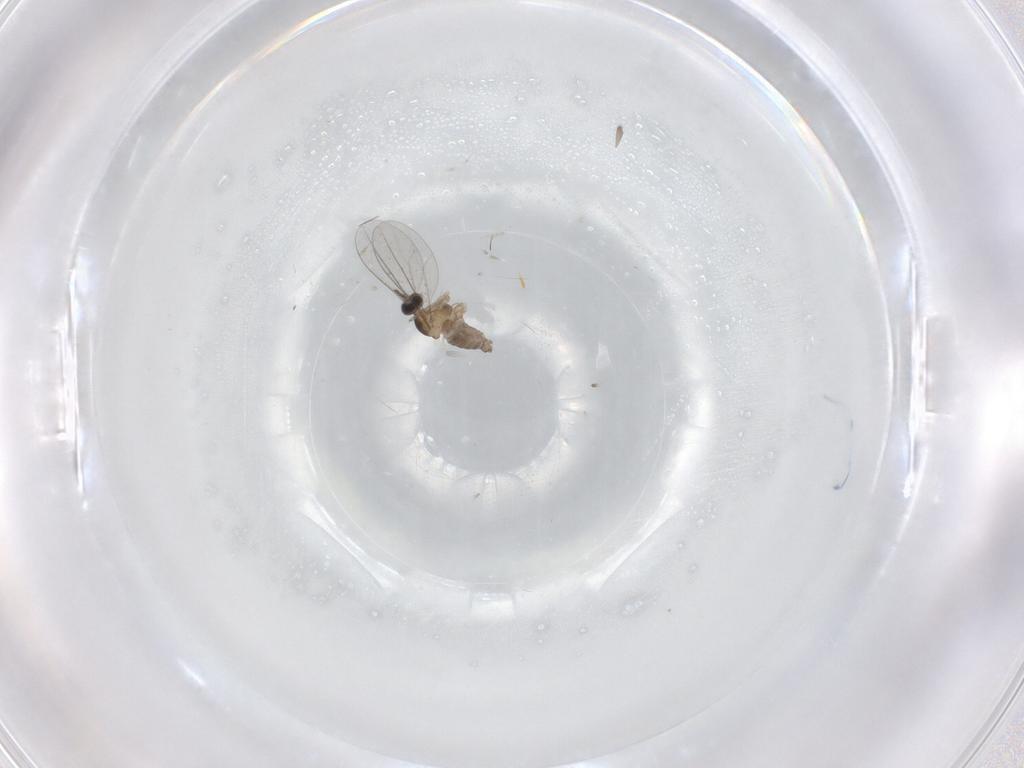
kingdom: Animalia
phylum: Arthropoda
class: Insecta
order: Diptera
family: Cecidomyiidae
